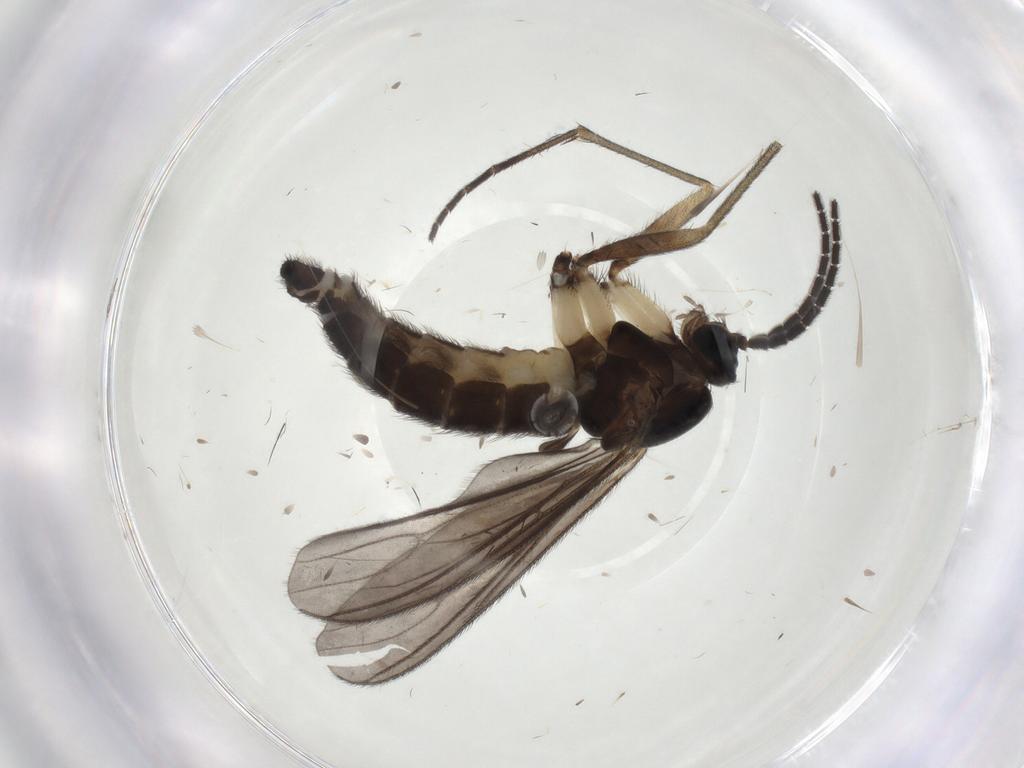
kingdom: Animalia
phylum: Arthropoda
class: Insecta
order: Diptera
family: Sciaridae
